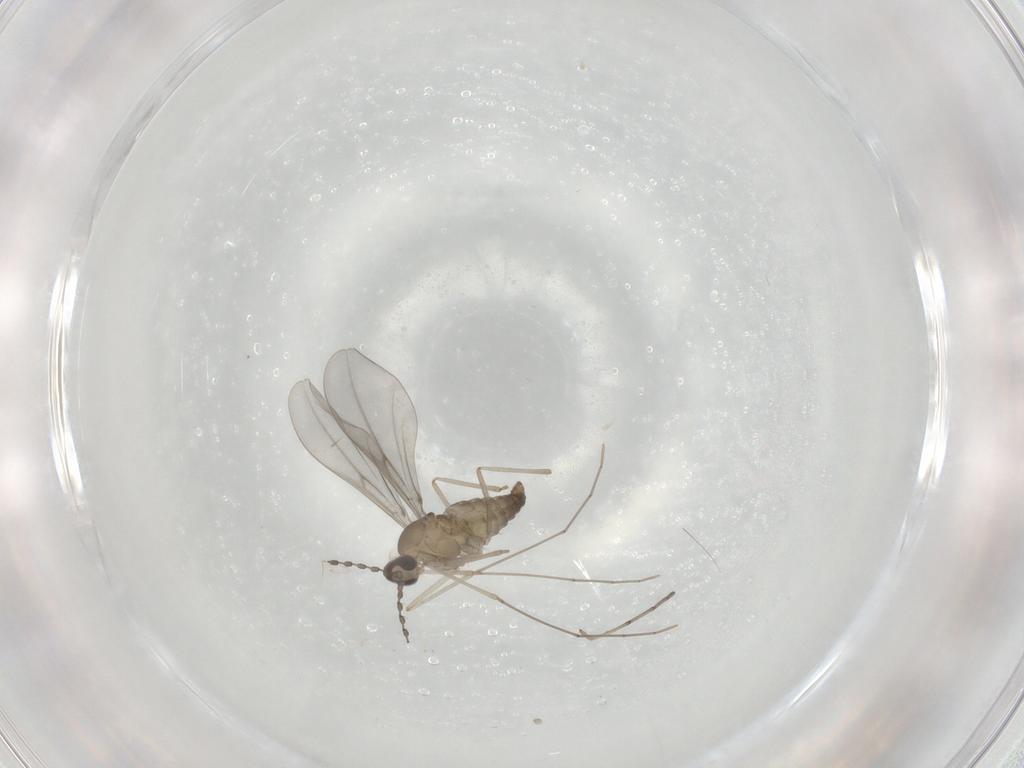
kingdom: Animalia
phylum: Arthropoda
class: Insecta
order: Diptera
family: Cecidomyiidae
